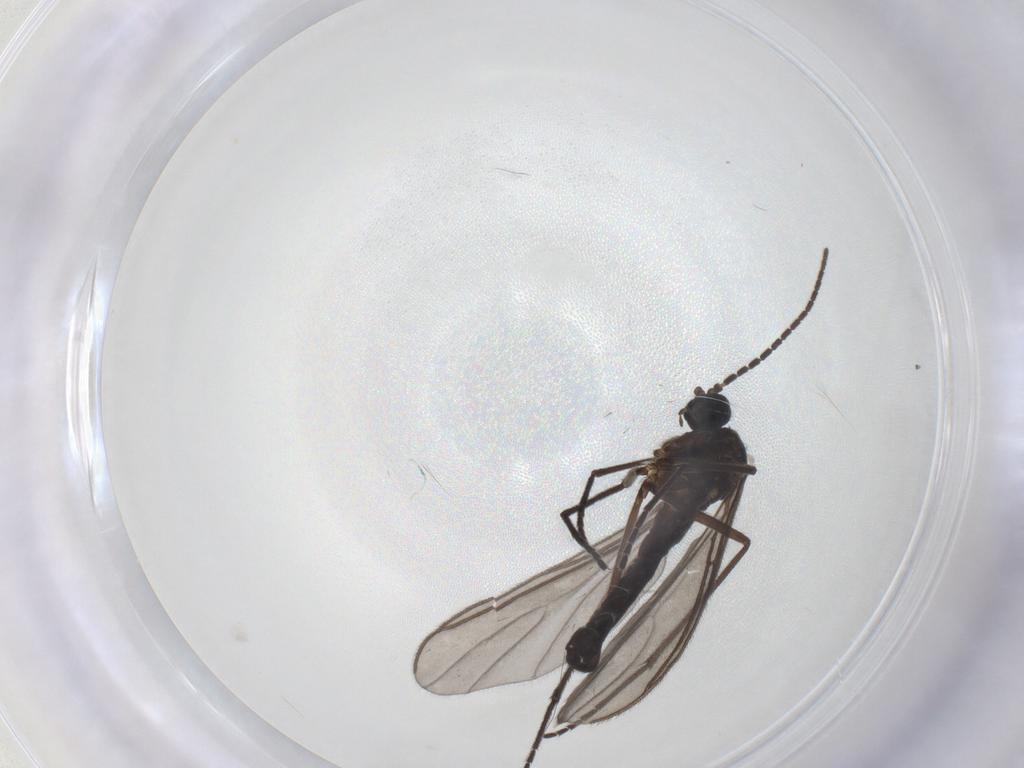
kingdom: Animalia
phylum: Arthropoda
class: Insecta
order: Diptera
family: Sciaridae
